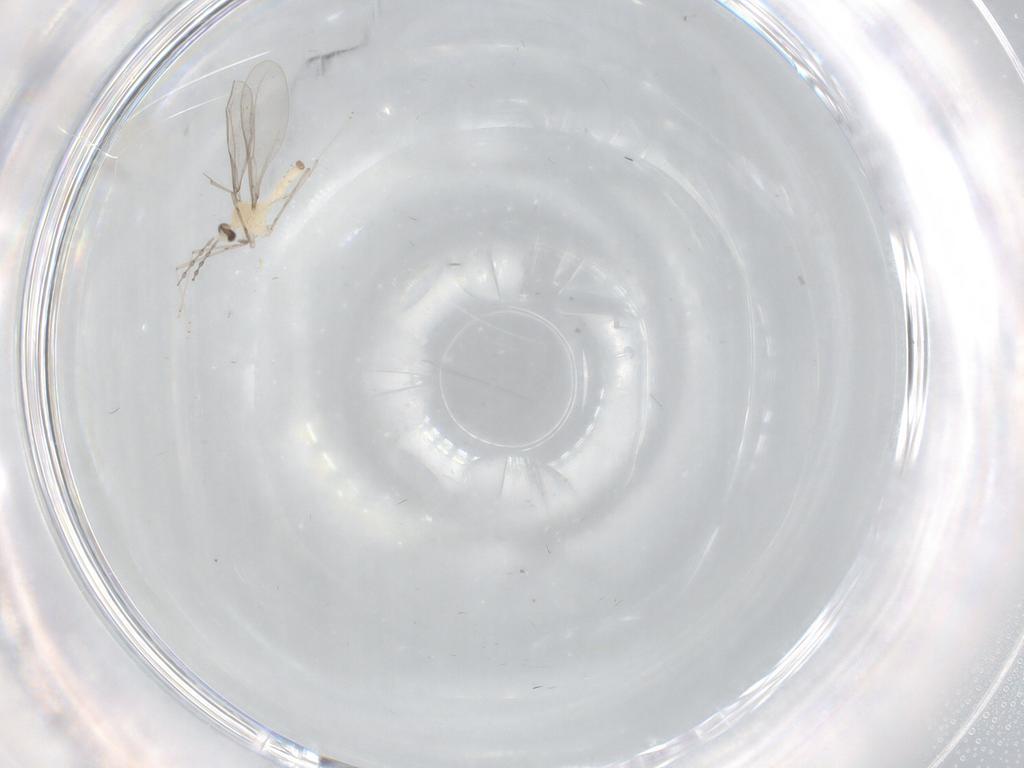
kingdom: Animalia
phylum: Arthropoda
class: Insecta
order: Diptera
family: Cecidomyiidae
